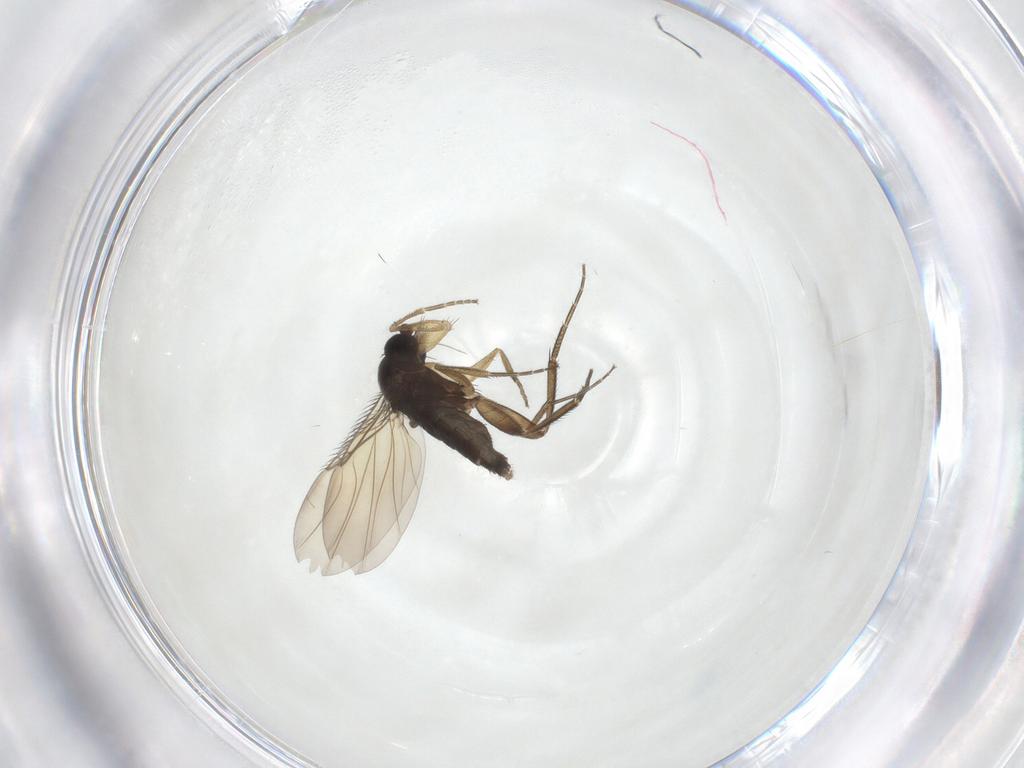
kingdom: Animalia
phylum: Arthropoda
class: Insecta
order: Diptera
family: Phoridae
